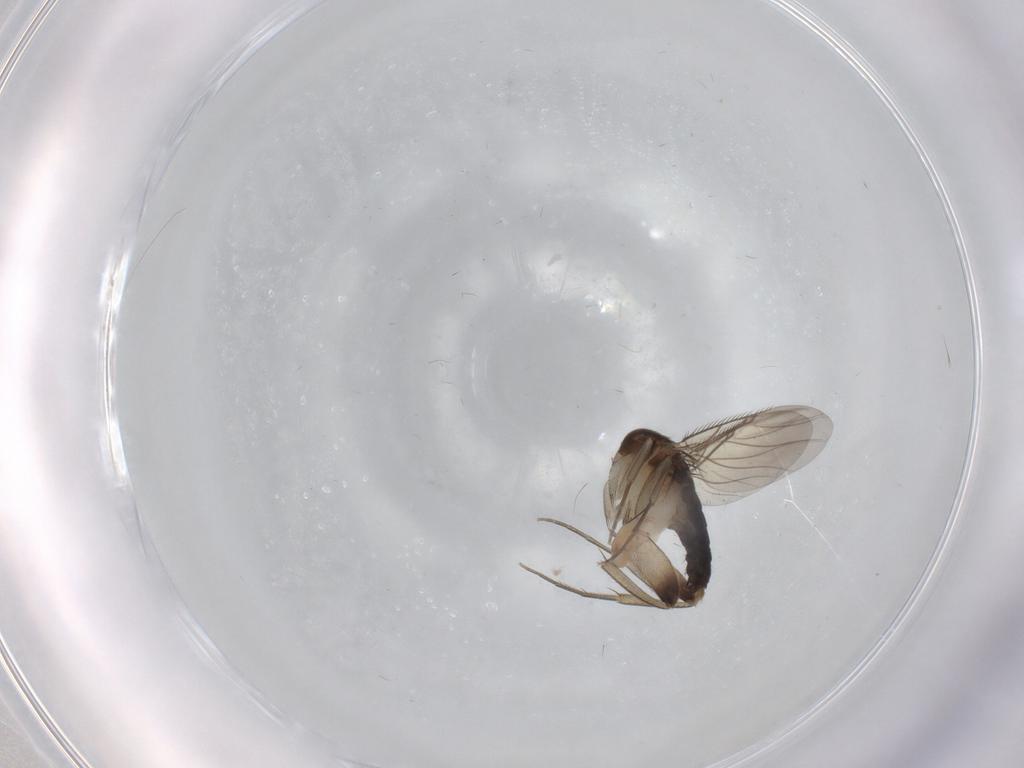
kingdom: Animalia
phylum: Arthropoda
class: Insecta
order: Diptera
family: Phoridae
